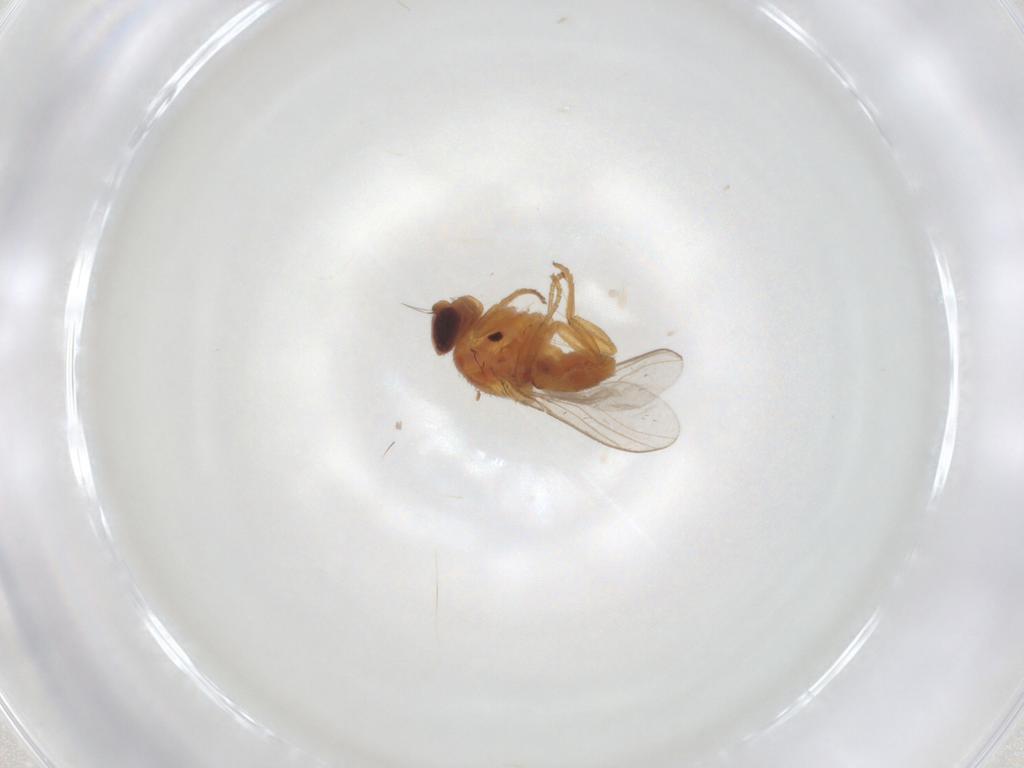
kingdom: Animalia
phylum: Arthropoda
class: Insecta
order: Diptera
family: Sciaridae
